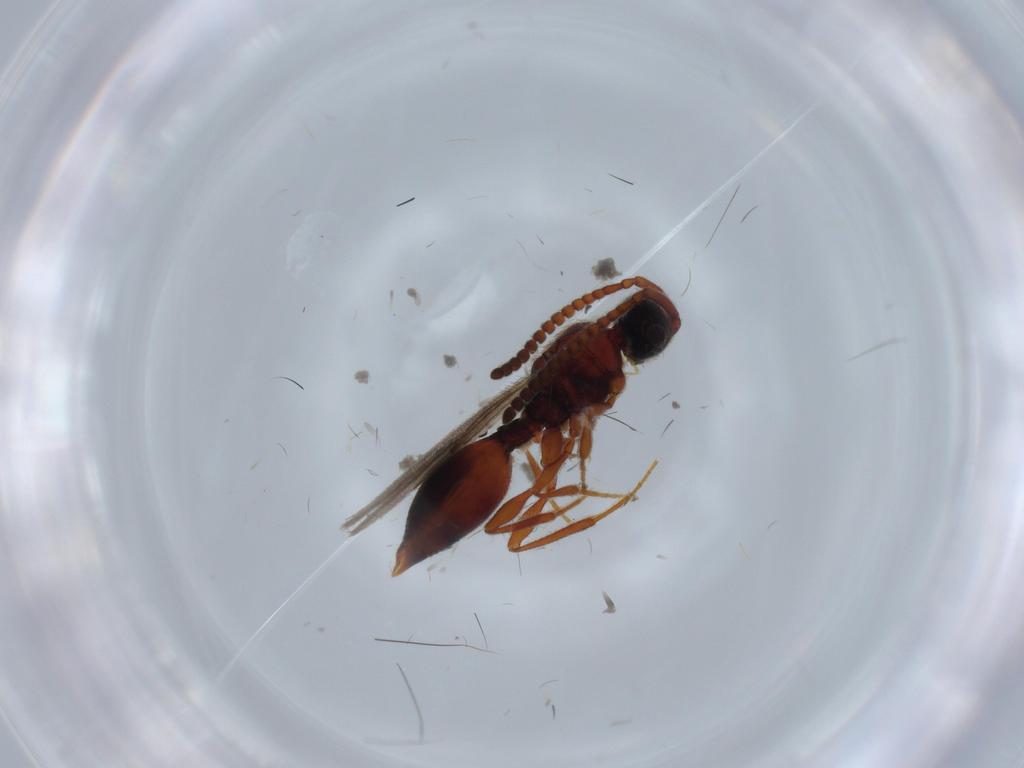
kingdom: Animalia
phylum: Arthropoda
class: Insecta
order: Hymenoptera
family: Diapriidae
